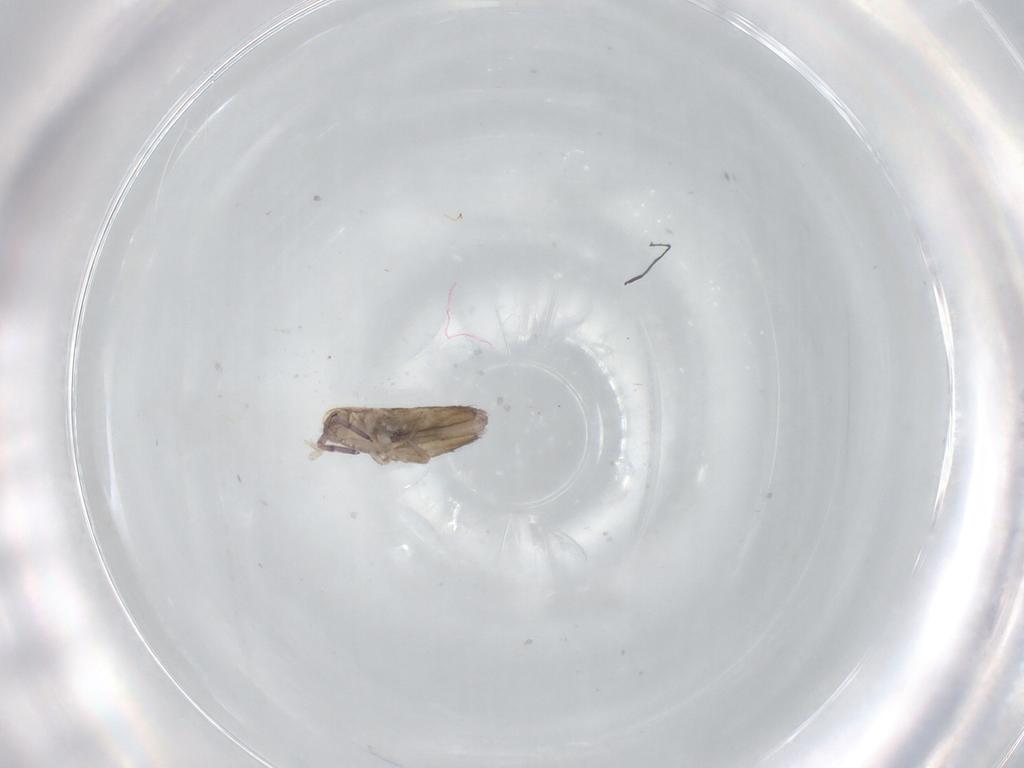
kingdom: Animalia
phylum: Arthropoda
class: Collembola
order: Entomobryomorpha
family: Entomobryidae
